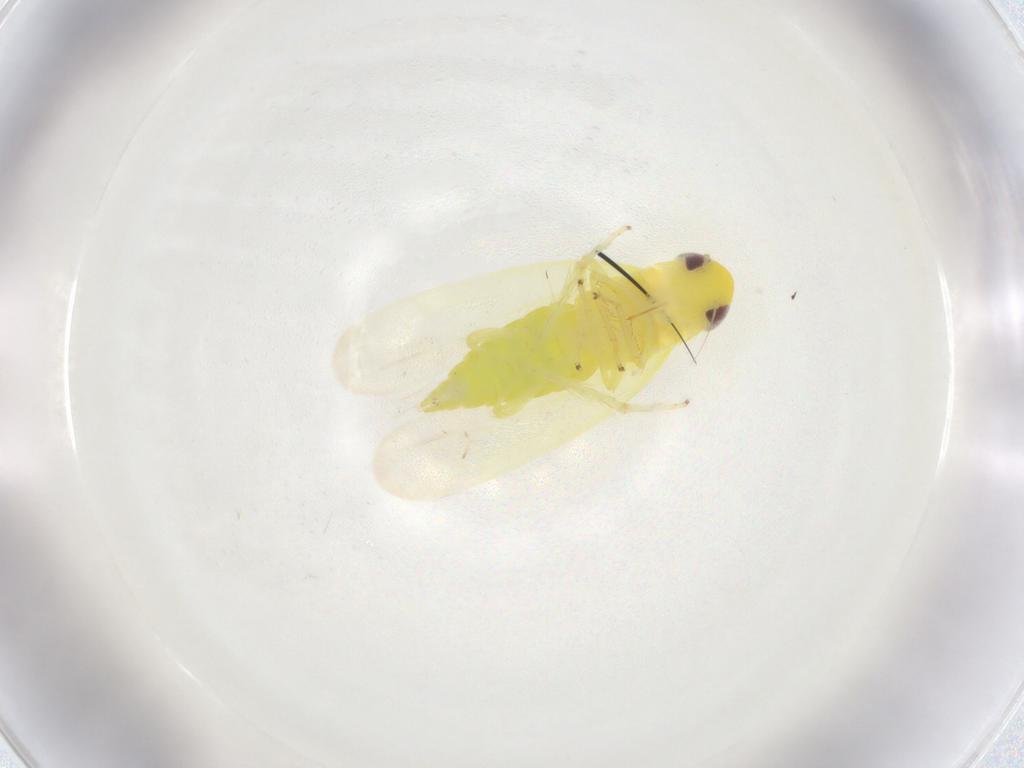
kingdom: Animalia
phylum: Arthropoda
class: Insecta
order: Hemiptera
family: Cicadellidae
